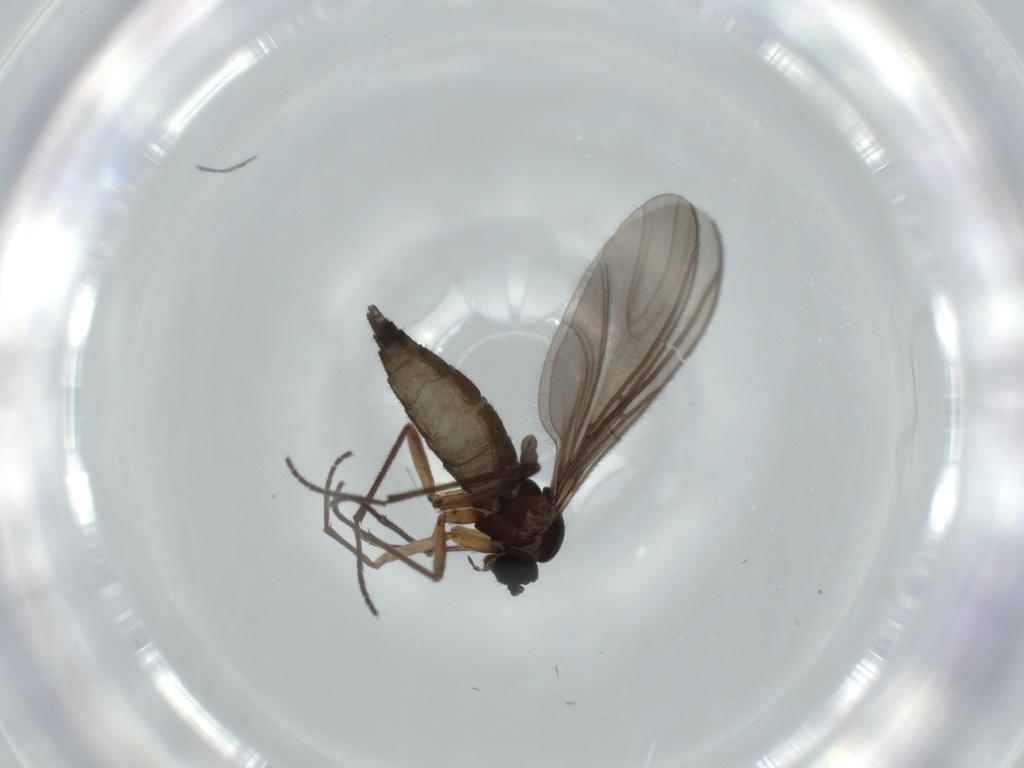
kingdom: Animalia
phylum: Arthropoda
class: Insecta
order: Diptera
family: Sciaridae
